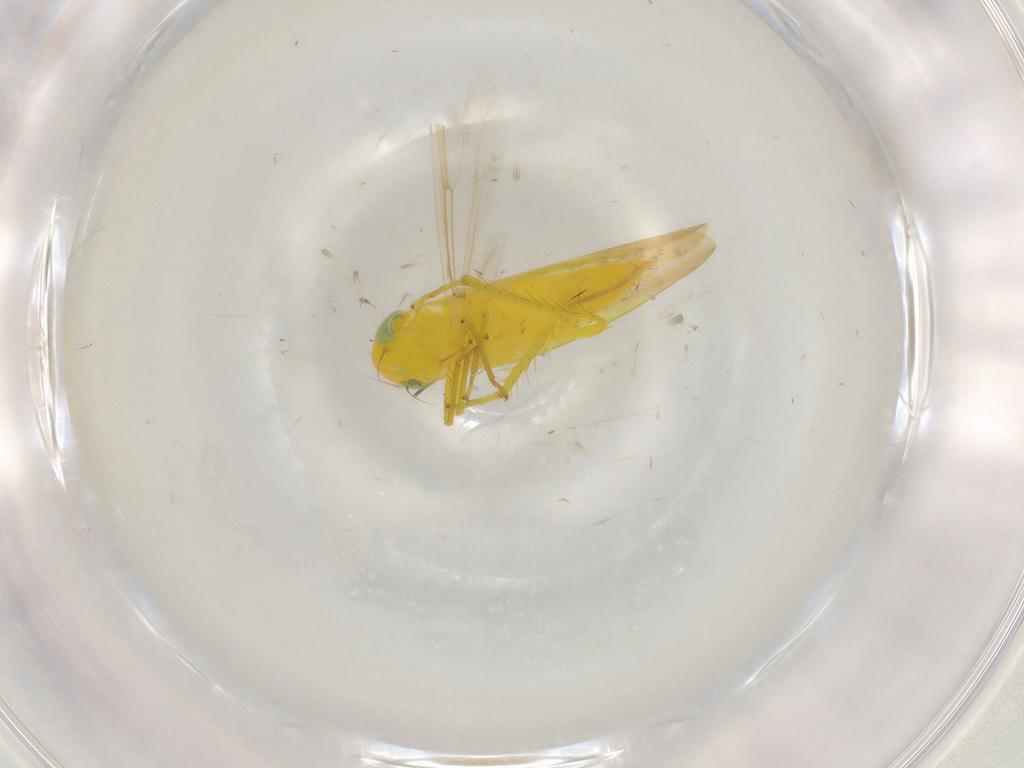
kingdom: Animalia
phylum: Arthropoda
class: Insecta
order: Hemiptera
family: Cicadellidae
